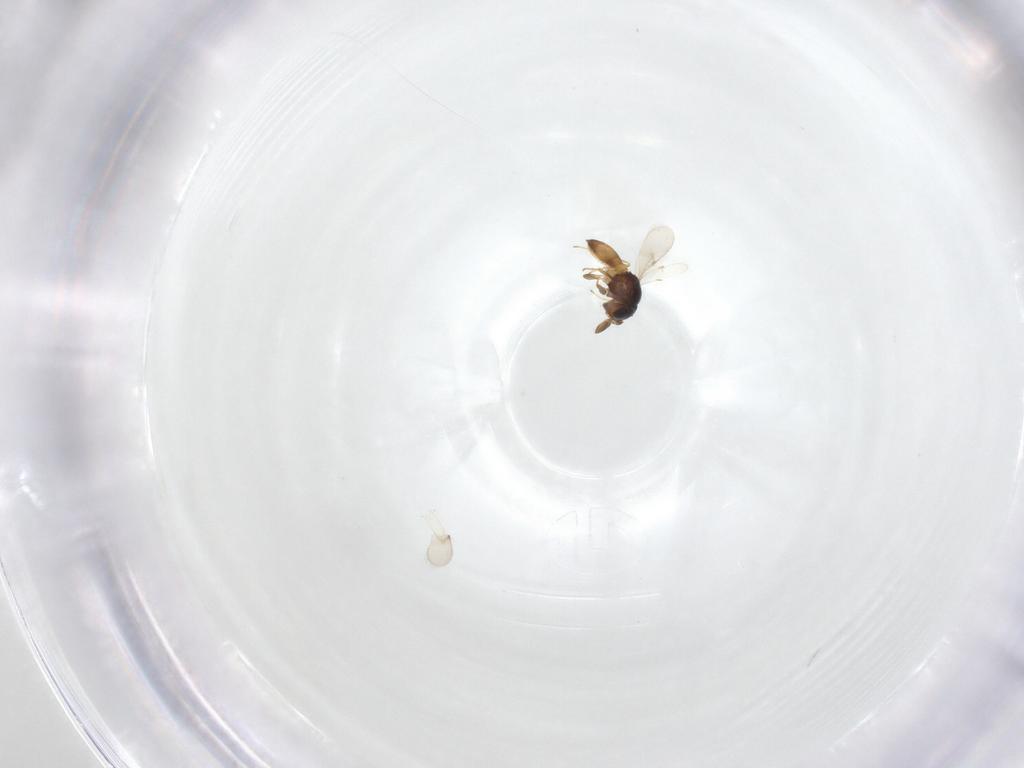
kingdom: Animalia
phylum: Arthropoda
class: Insecta
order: Hymenoptera
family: Scelionidae
